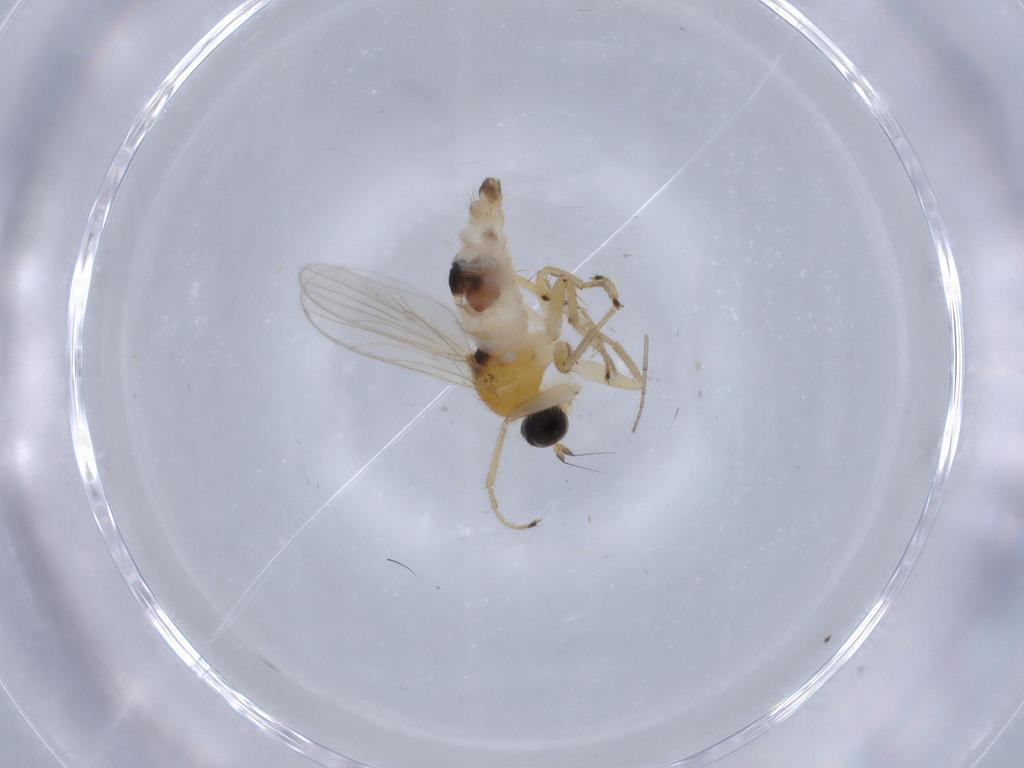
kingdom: Animalia
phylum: Arthropoda
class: Insecta
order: Diptera
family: Hybotidae
